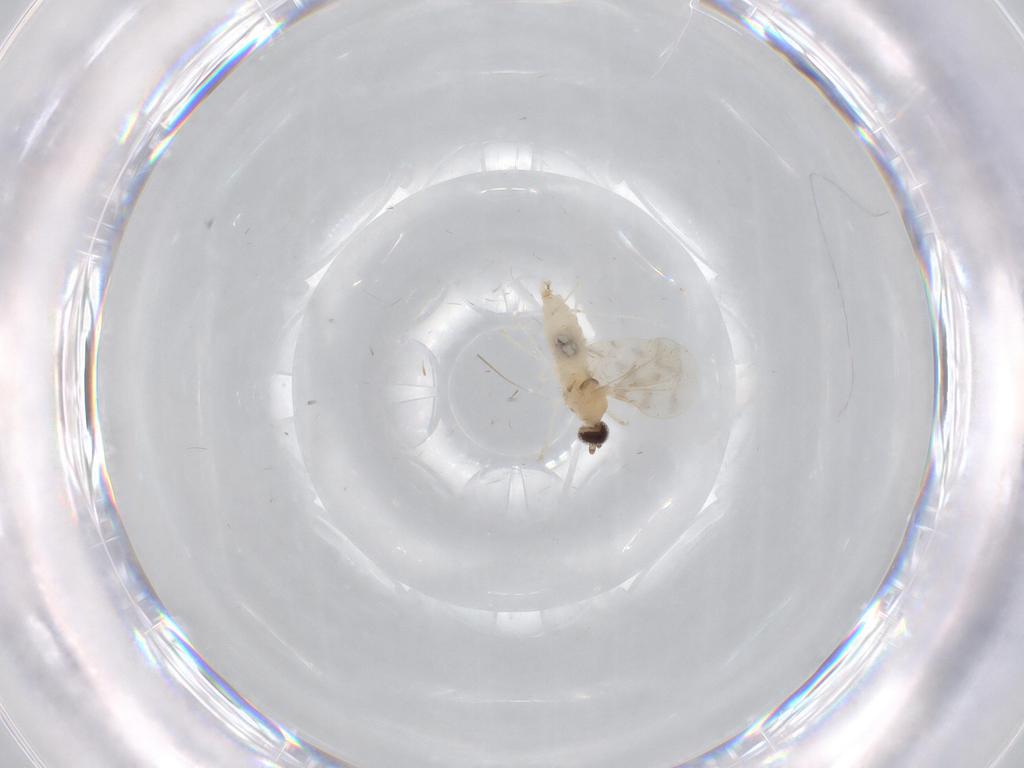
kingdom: Animalia
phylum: Arthropoda
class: Insecta
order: Diptera
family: Cecidomyiidae
